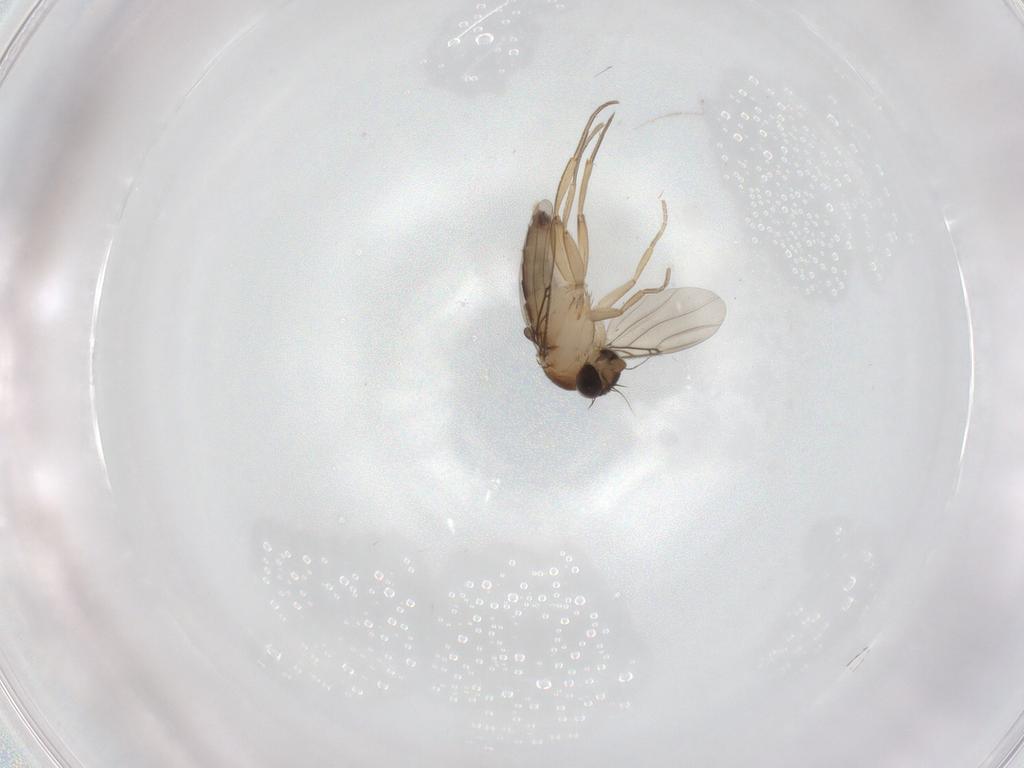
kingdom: Animalia
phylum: Arthropoda
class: Insecta
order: Diptera
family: Phoridae
